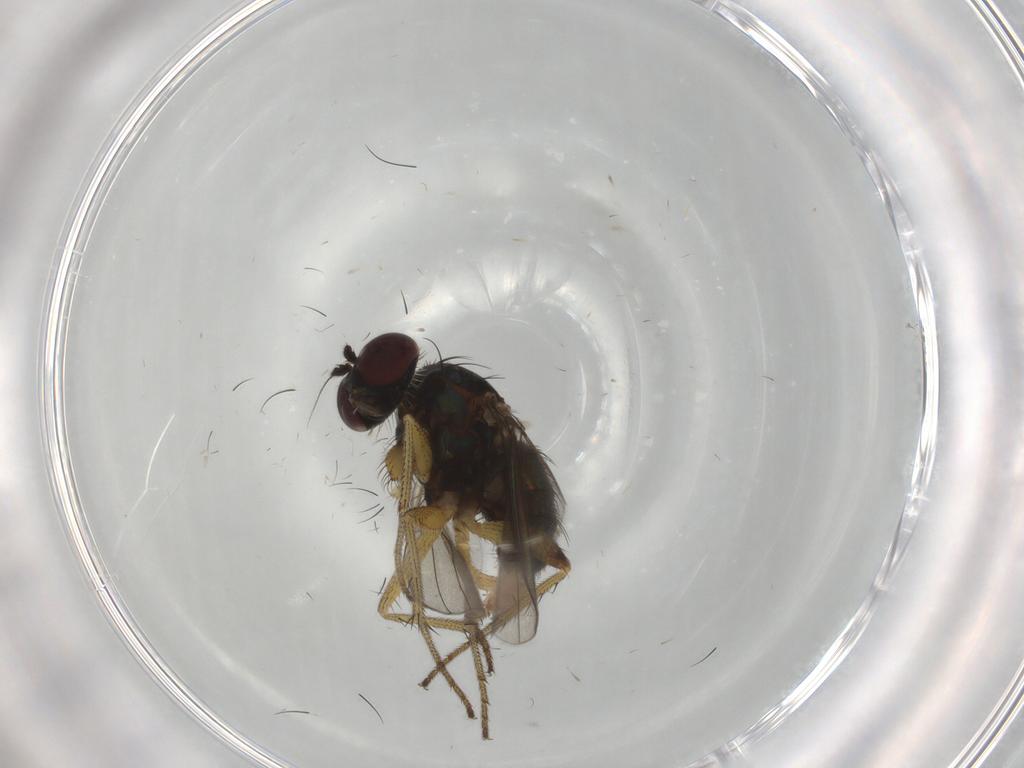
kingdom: Animalia
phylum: Arthropoda
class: Insecta
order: Diptera
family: Dolichopodidae
